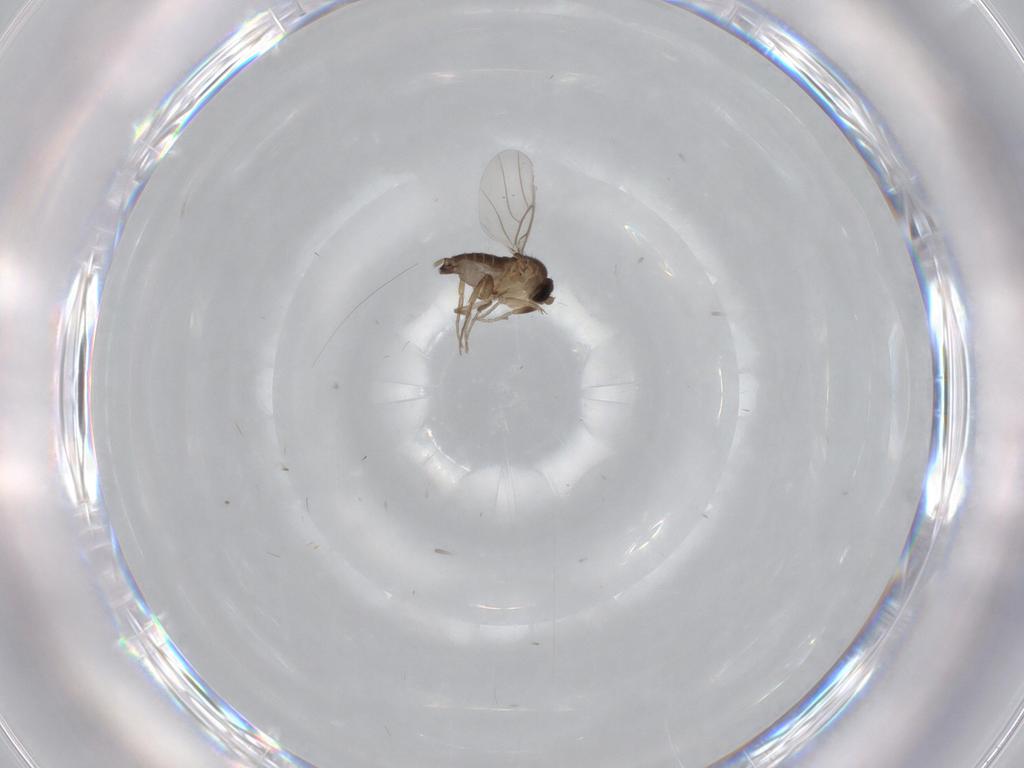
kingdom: Animalia
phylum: Arthropoda
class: Insecta
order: Diptera
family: Phoridae
